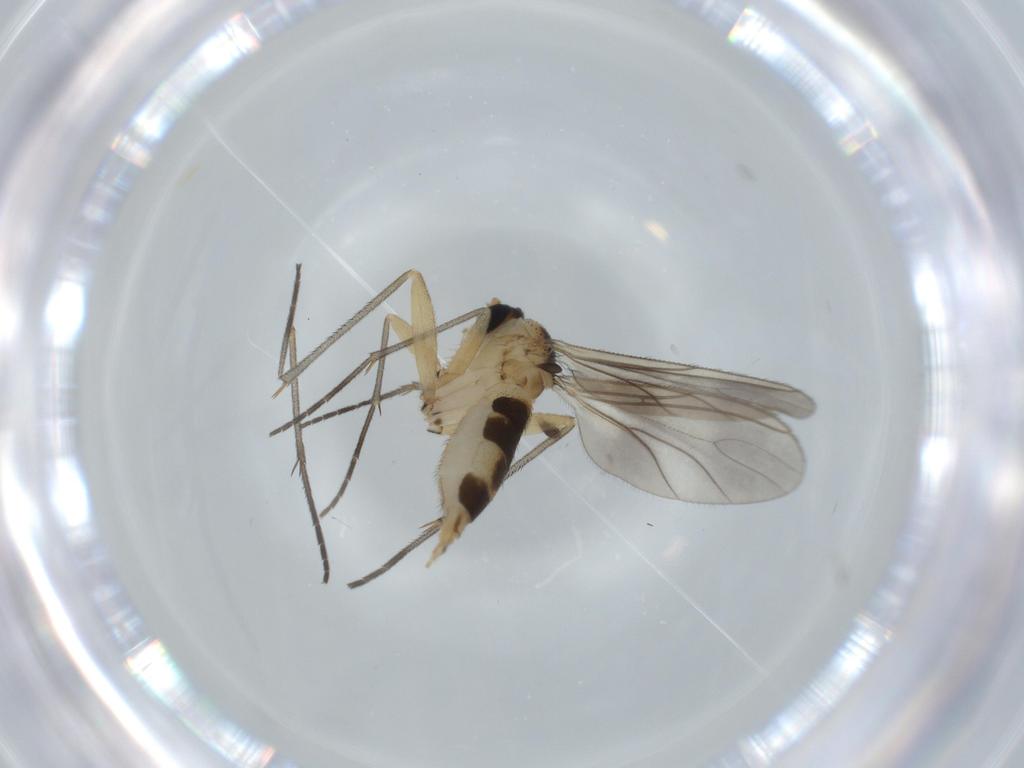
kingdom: Animalia
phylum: Arthropoda
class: Insecta
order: Diptera
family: Sciaridae
